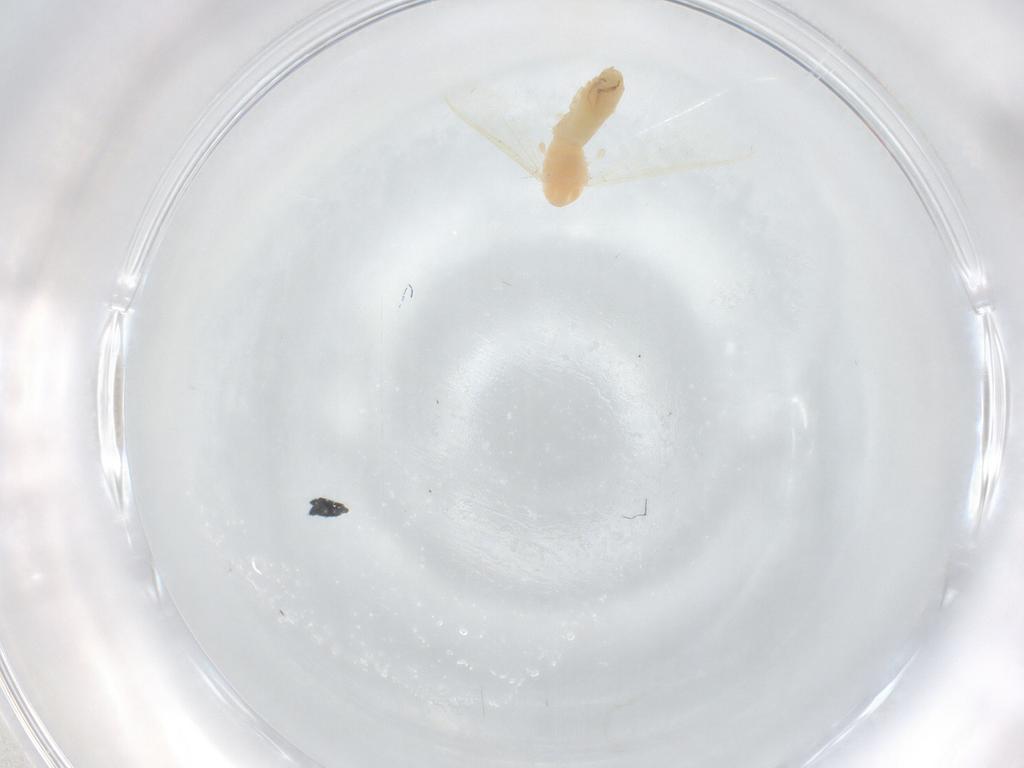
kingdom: Animalia
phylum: Arthropoda
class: Insecta
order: Diptera
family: Chironomidae
